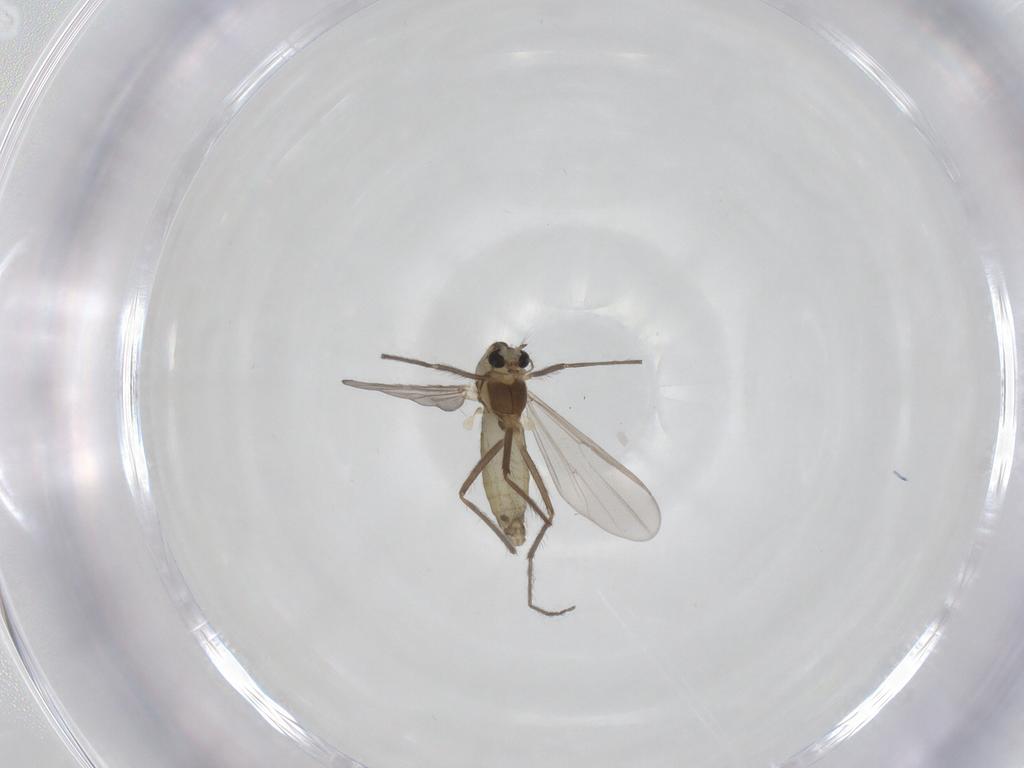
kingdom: Animalia
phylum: Arthropoda
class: Insecta
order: Diptera
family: Chironomidae
